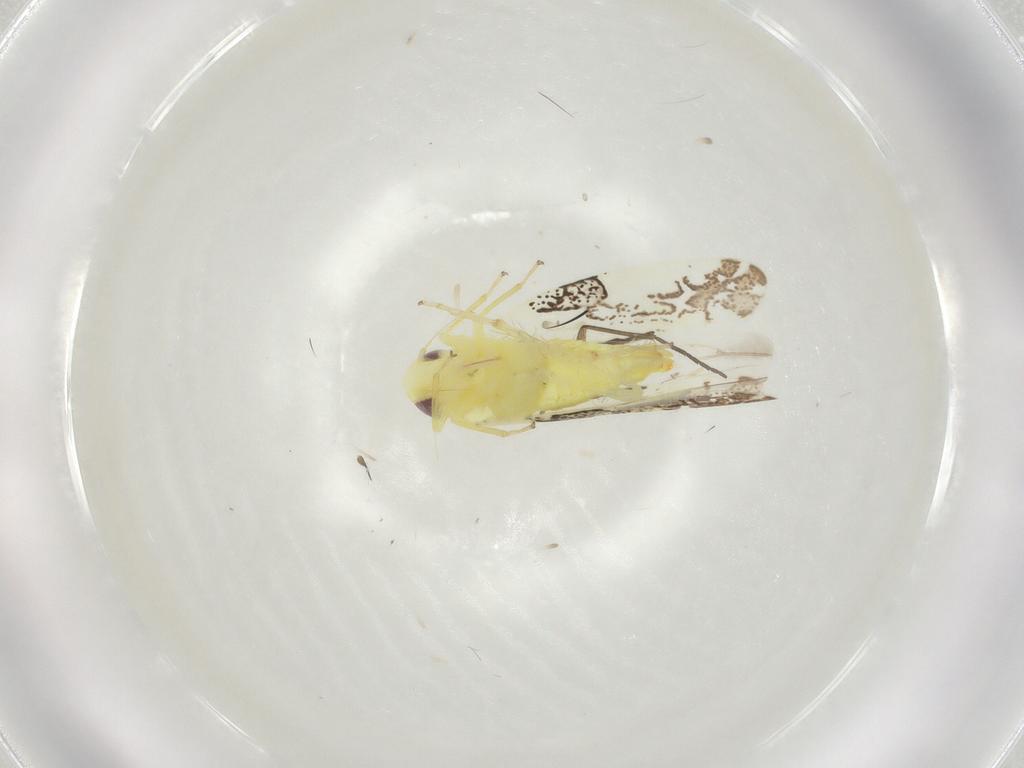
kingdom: Animalia
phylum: Arthropoda
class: Insecta
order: Hemiptera
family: Cicadellidae
